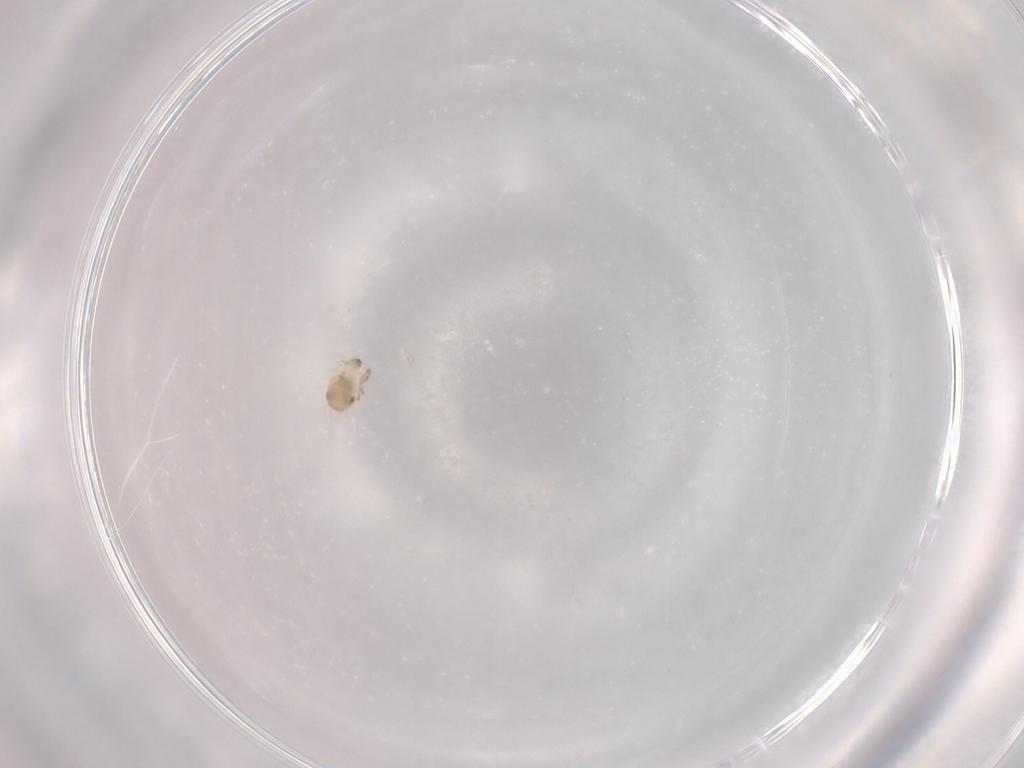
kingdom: Animalia
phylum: Arthropoda
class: Arachnida
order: Sarcoptiformes
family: Tegoribatidae
